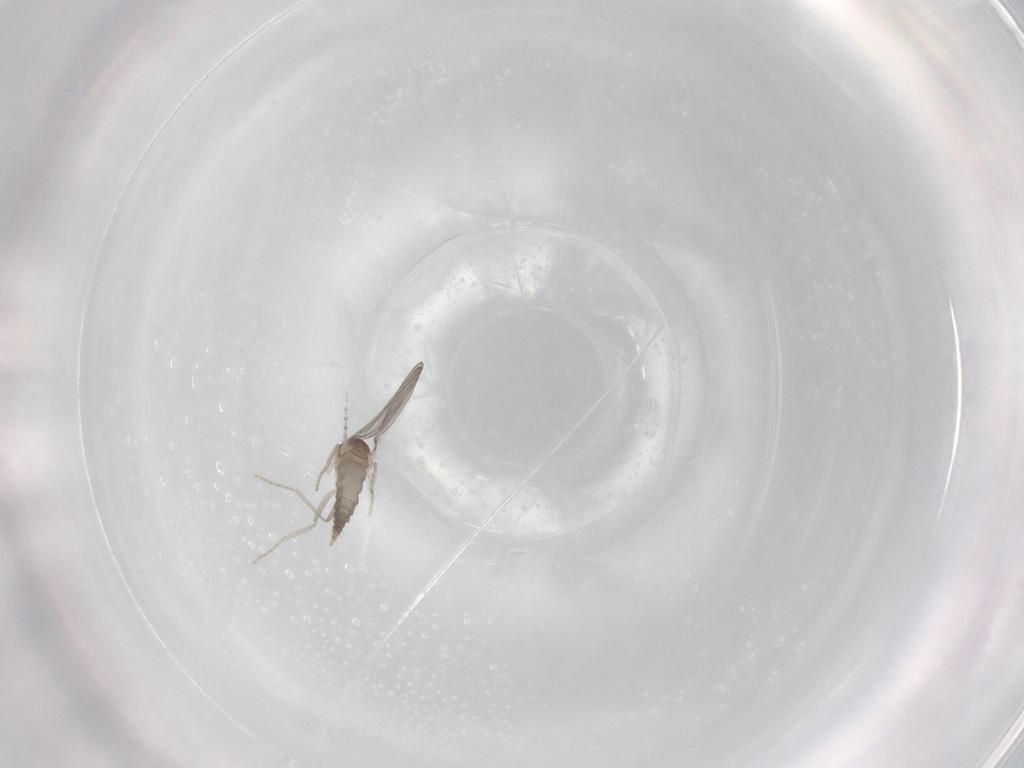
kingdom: Animalia
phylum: Arthropoda
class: Insecta
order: Diptera
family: Cecidomyiidae
